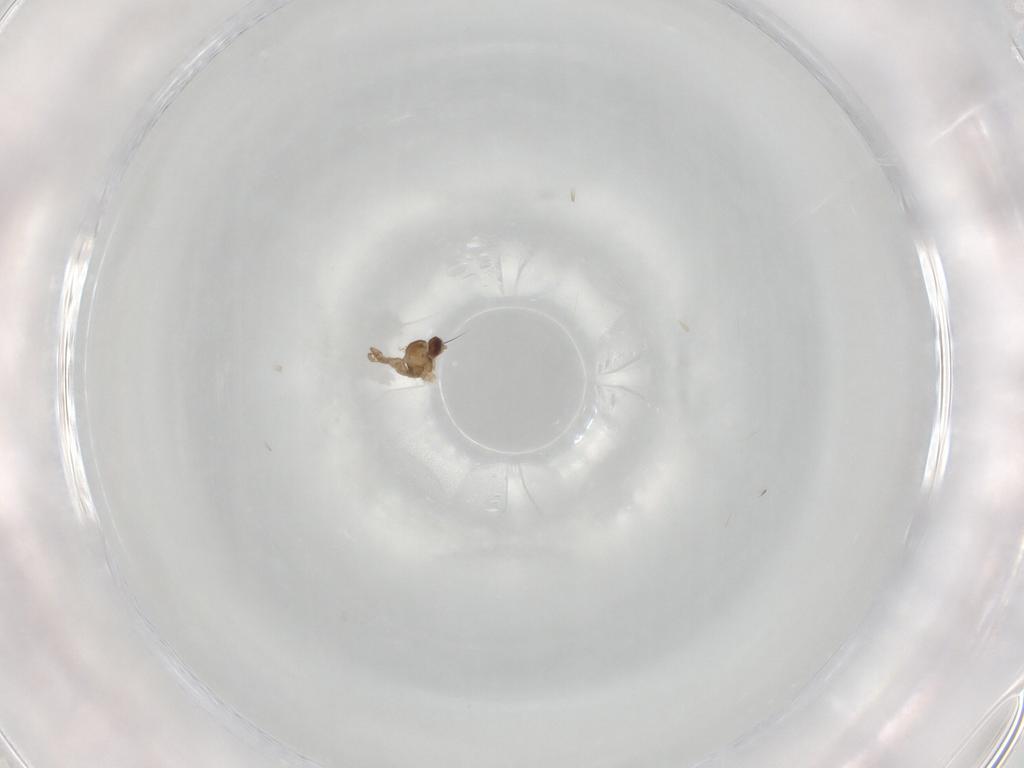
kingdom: Animalia
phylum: Arthropoda
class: Insecta
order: Diptera
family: Cecidomyiidae
